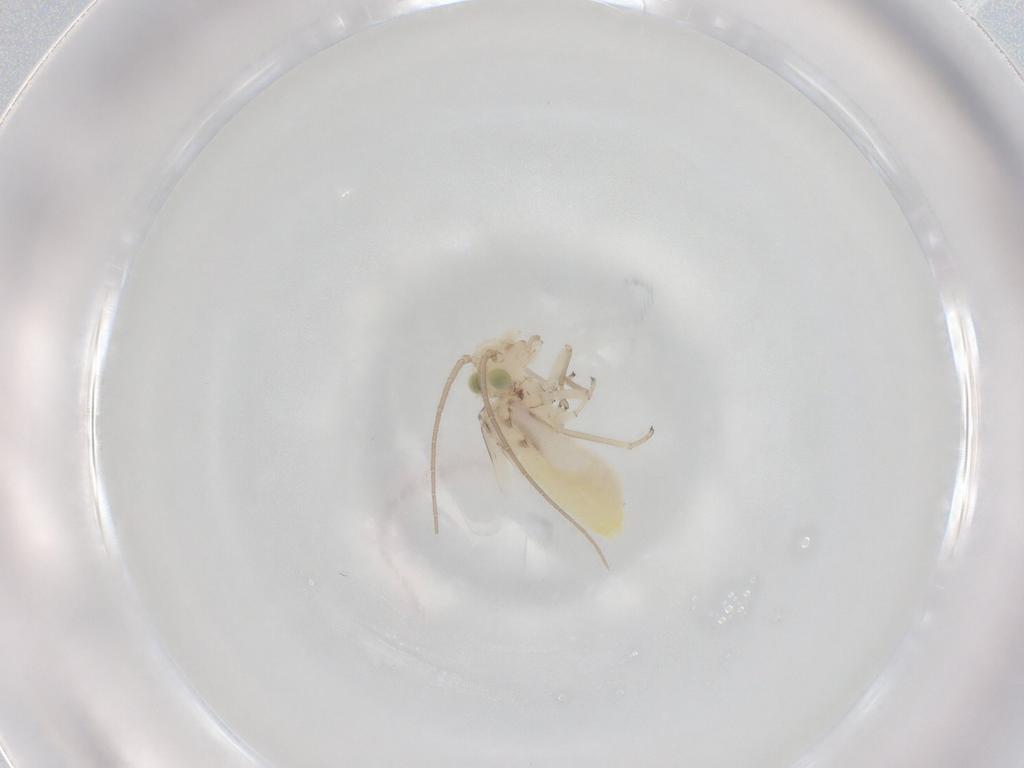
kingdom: Animalia
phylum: Arthropoda
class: Insecta
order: Psocodea
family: Caeciliusidae
